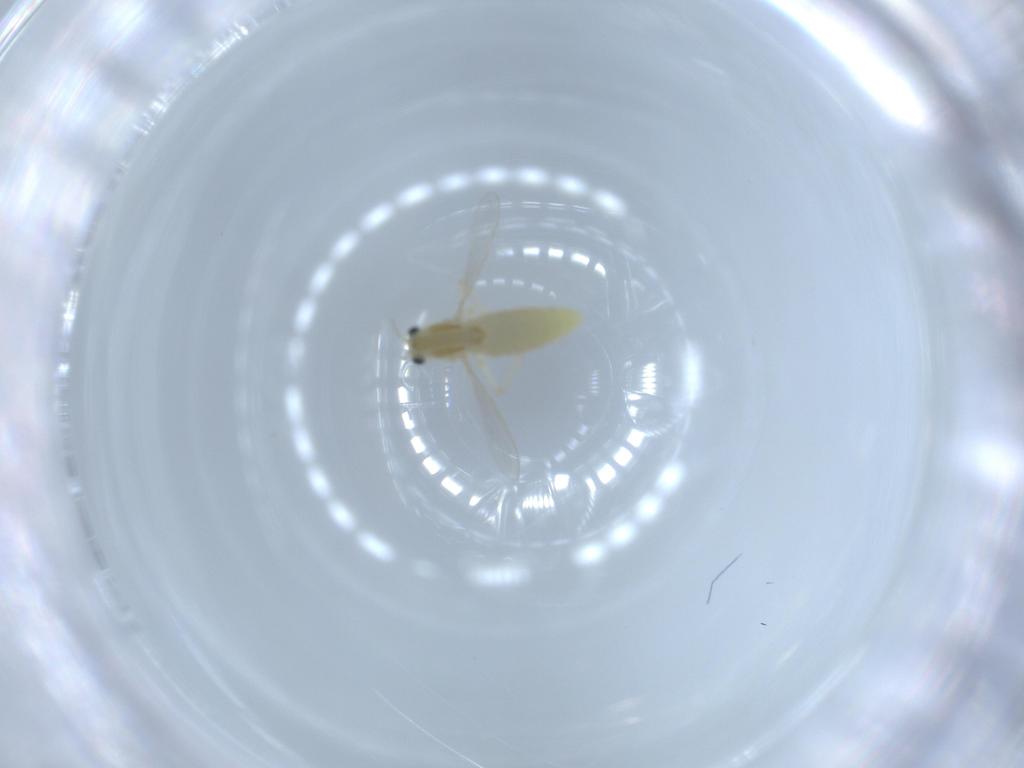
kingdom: Animalia
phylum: Arthropoda
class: Insecta
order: Diptera
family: Chironomidae
